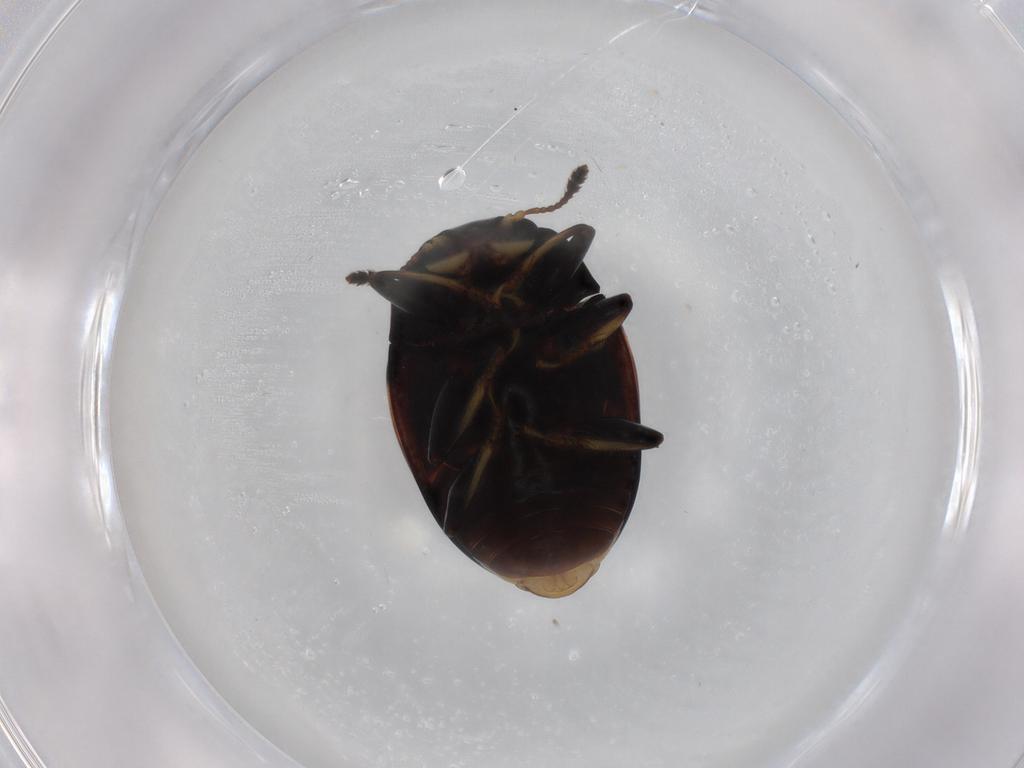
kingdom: Animalia
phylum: Arthropoda
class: Insecta
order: Coleoptera
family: Erotylidae
